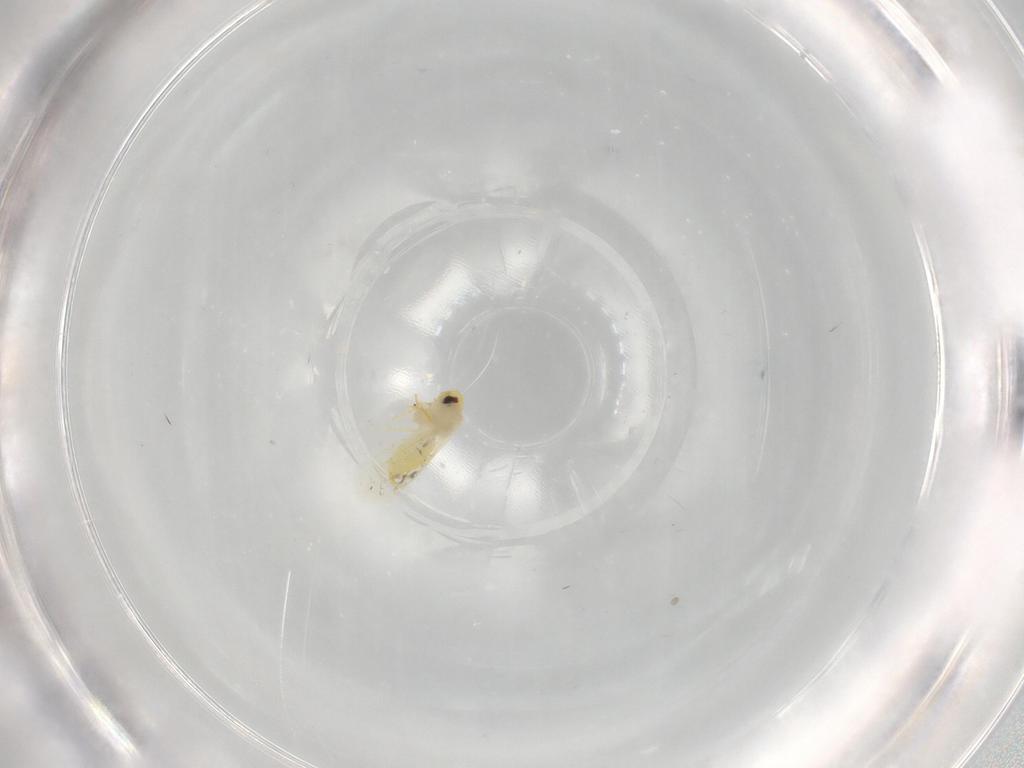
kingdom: Animalia
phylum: Arthropoda
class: Insecta
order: Hemiptera
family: Aleyrodidae
